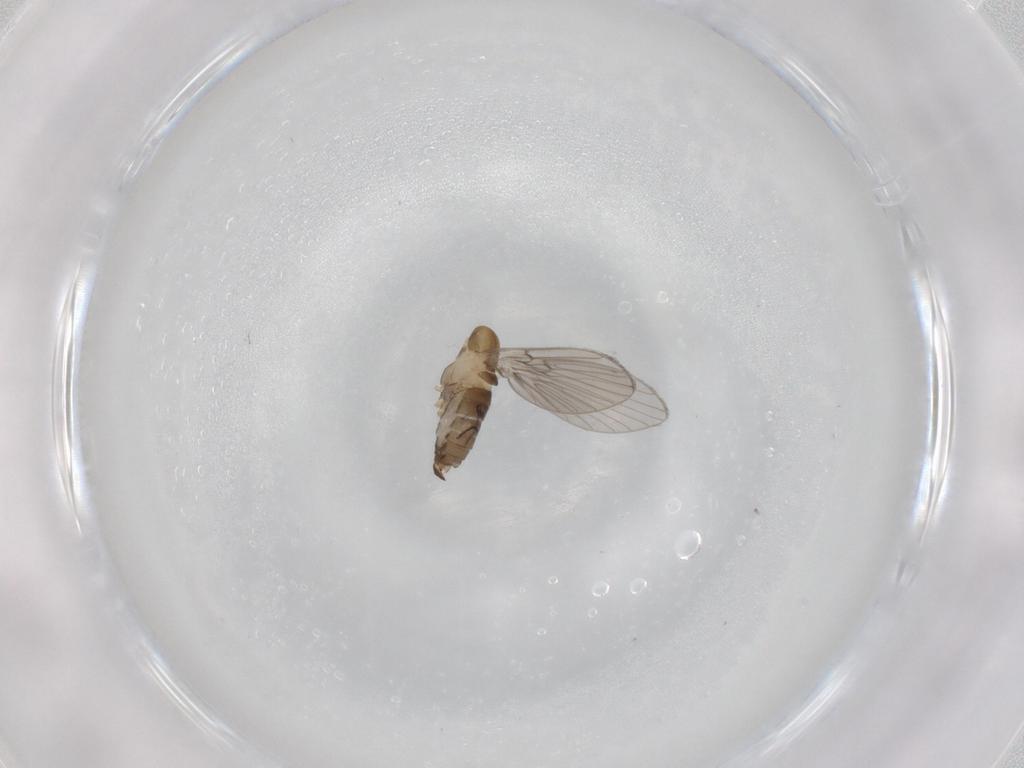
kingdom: Animalia
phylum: Arthropoda
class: Insecta
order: Diptera
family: Psychodidae
